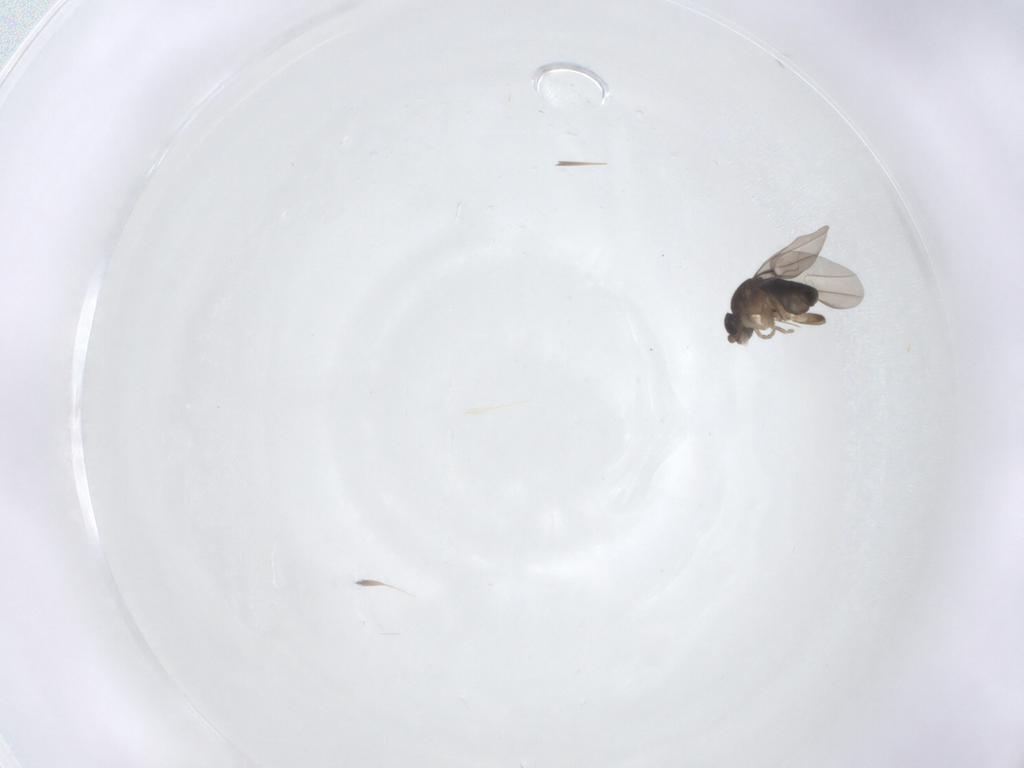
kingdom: Animalia
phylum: Arthropoda
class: Insecta
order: Diptera
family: Phoridae
